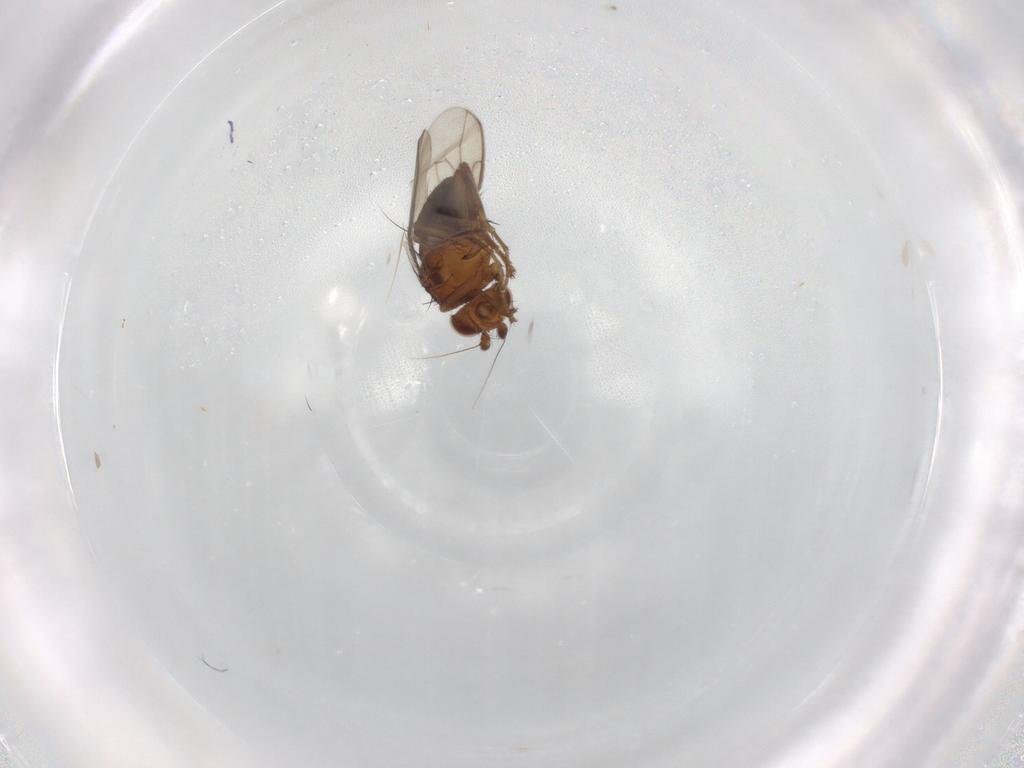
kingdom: Animalia
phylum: Arthropoda
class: Insecta
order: Diptera
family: Sphaeroceridae
